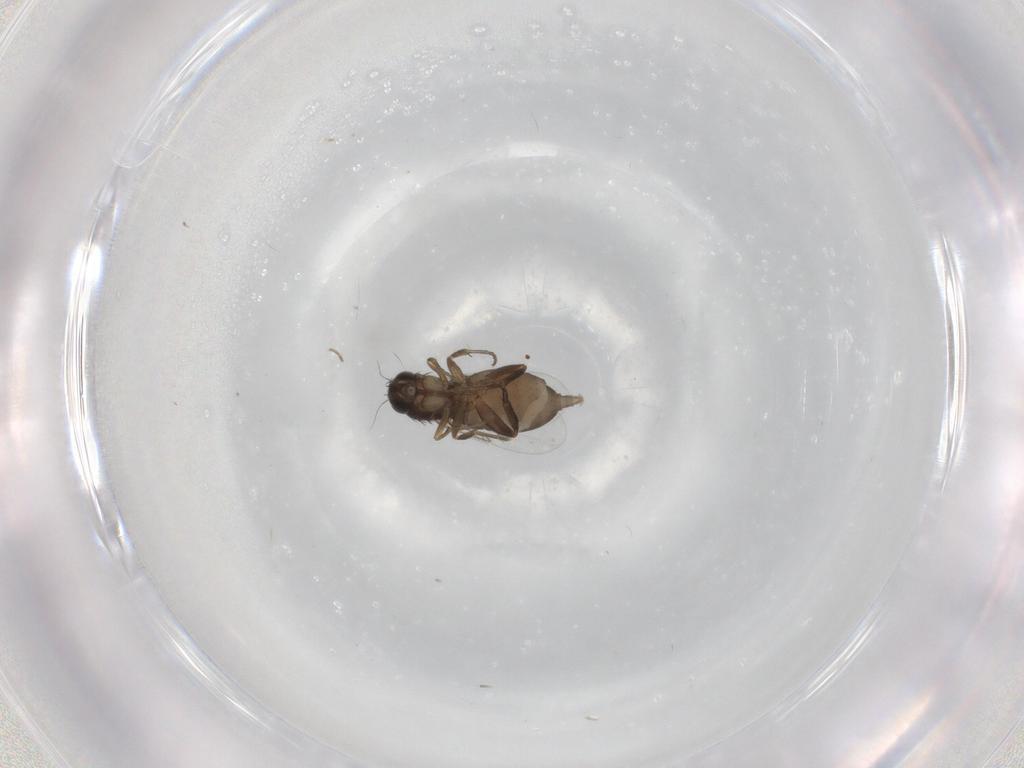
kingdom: Animalia
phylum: Arthropoda
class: Insecta
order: Diptera
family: Phoridae
